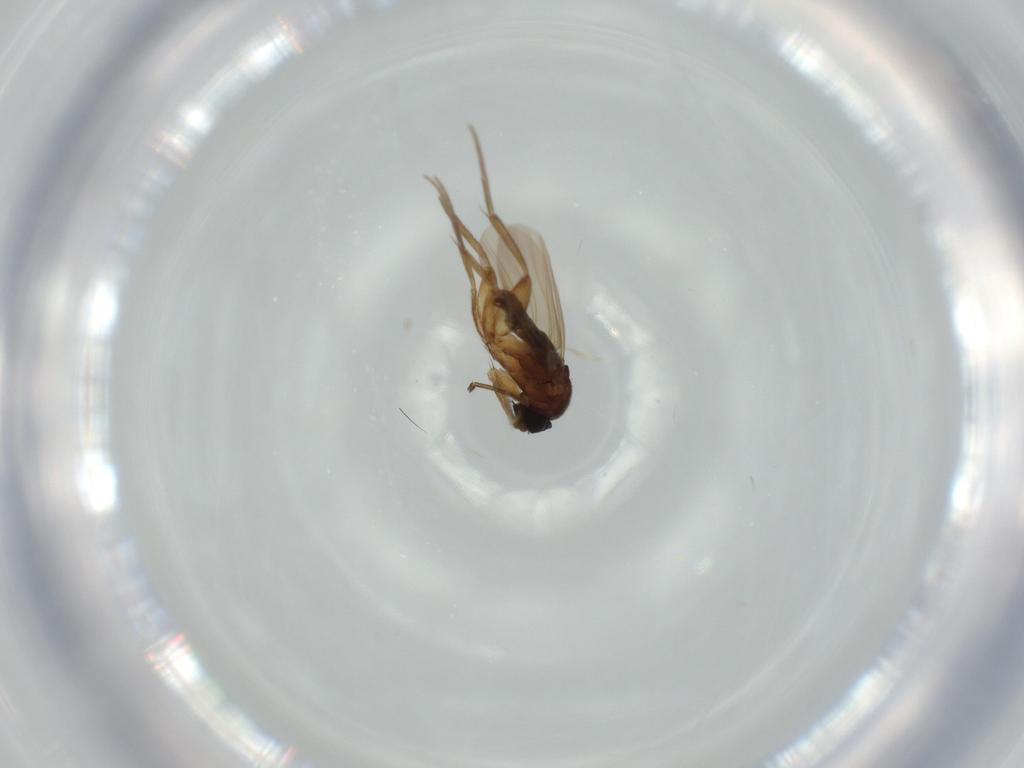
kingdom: Animalia
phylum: Arthropoda
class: Insecta
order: Diptera
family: Phoridae
